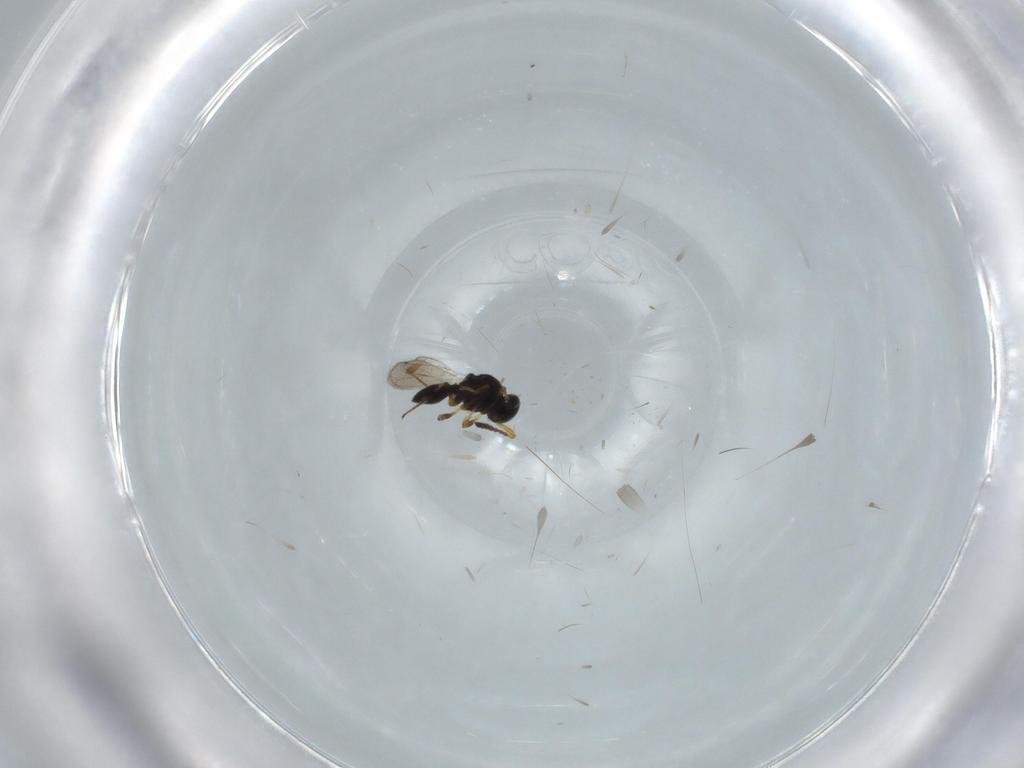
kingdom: Animalia
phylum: Arthropoda
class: Insecta
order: Hymenoptera
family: Platygastridae
